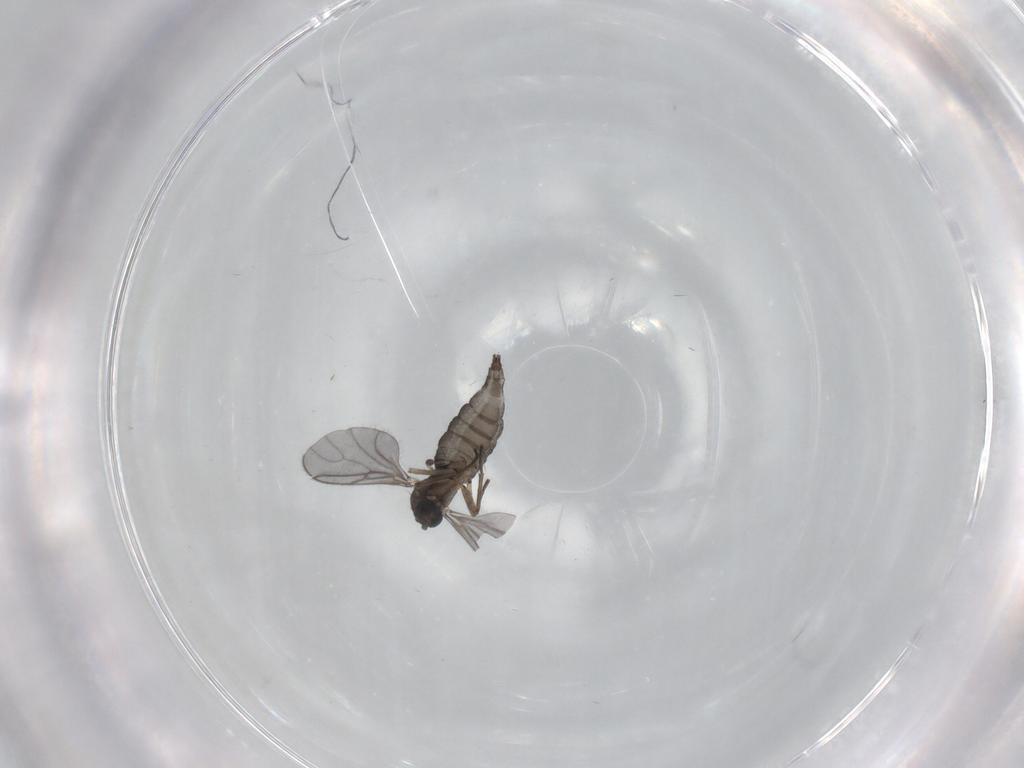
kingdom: Animalia
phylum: Arthropoda
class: Insecta
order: Diptera
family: Sciaridae
